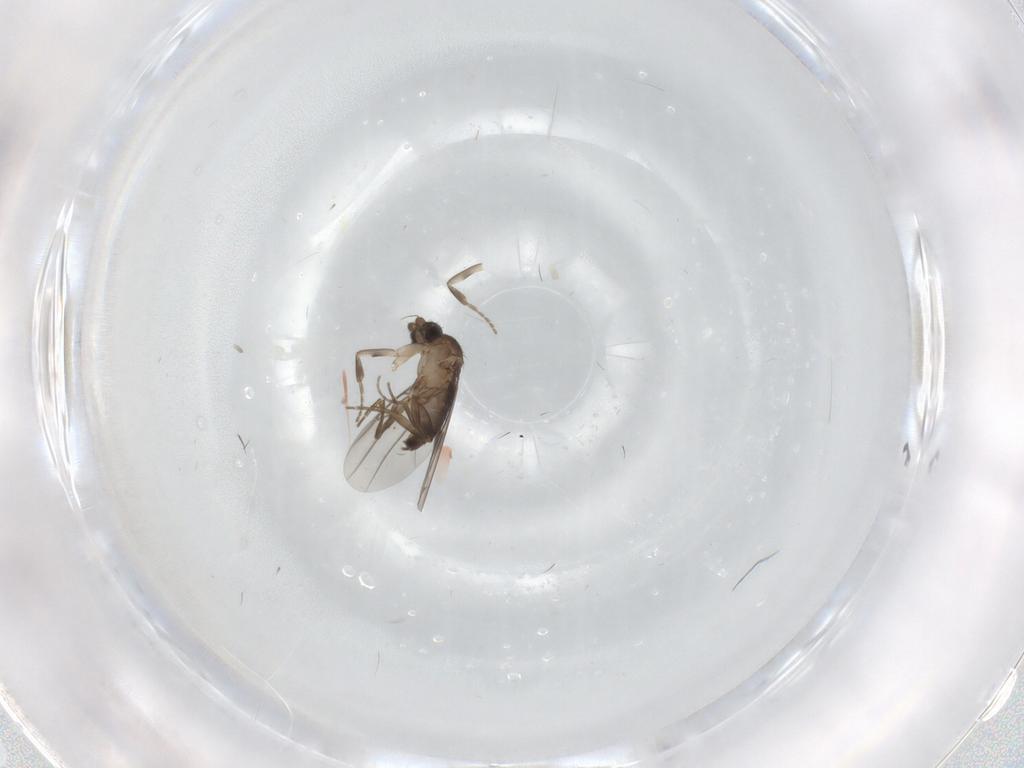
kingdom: Animalia
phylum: Arthropoda
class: Insecta
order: Diptera
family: Phoridae
